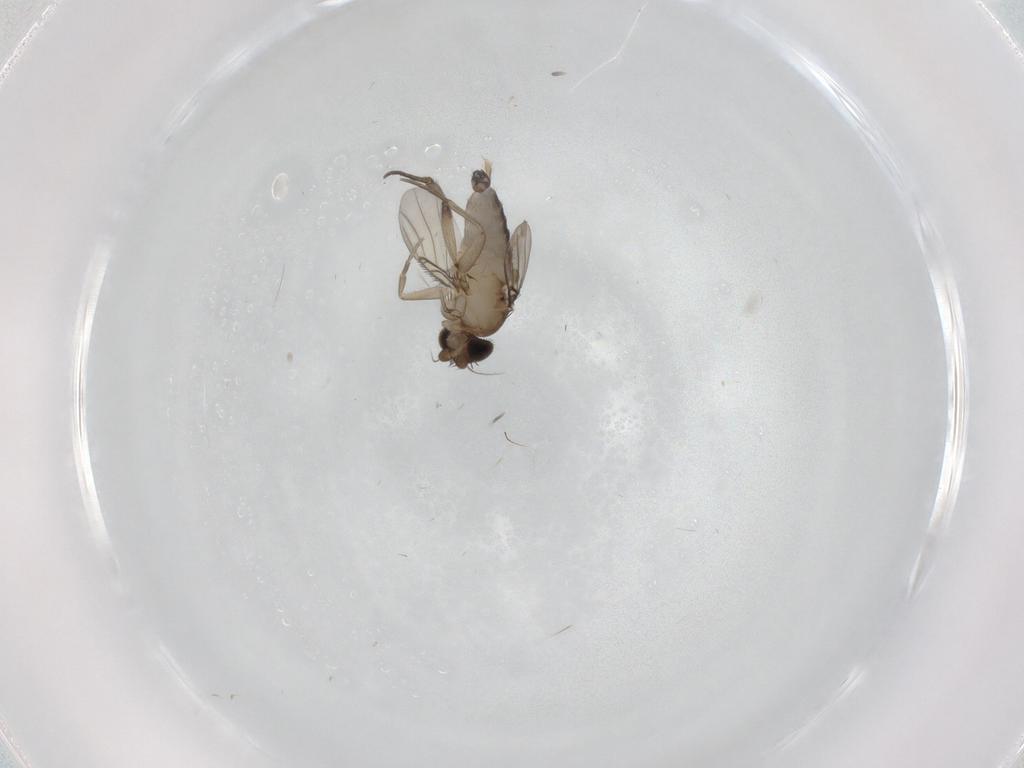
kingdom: Animalia
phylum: Arthropoda
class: Insecta
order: Diptera
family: Phoridae
